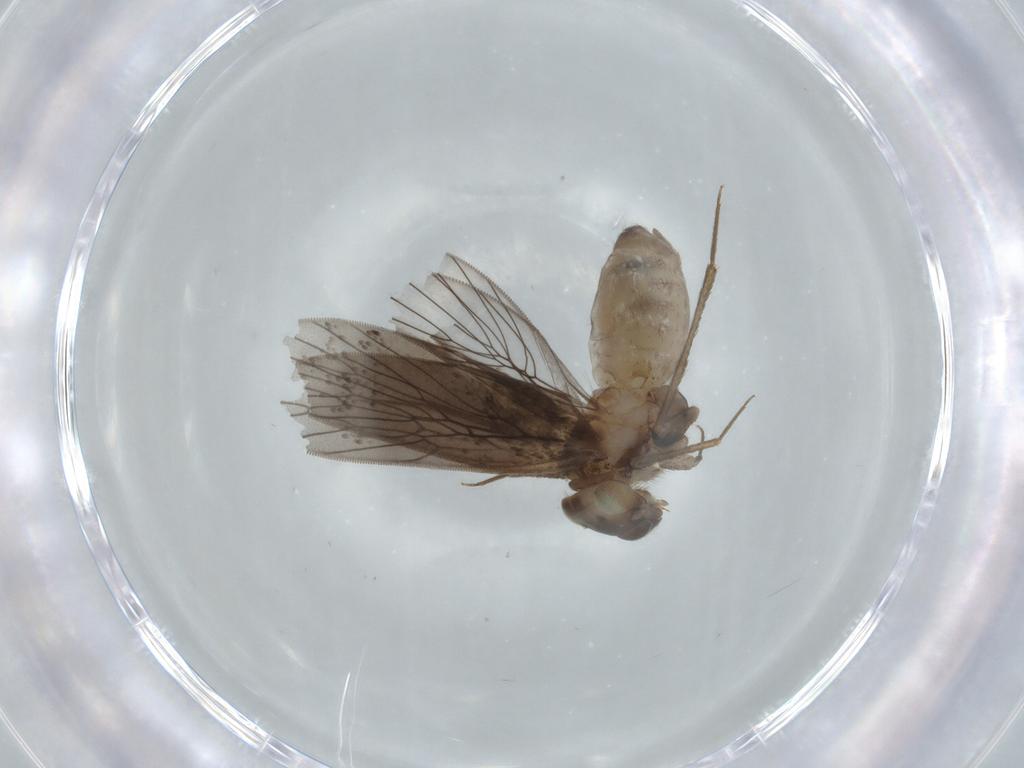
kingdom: Animalia
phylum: Arthropoda
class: Insecta
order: Psocodea
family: Lepidopsocidae
